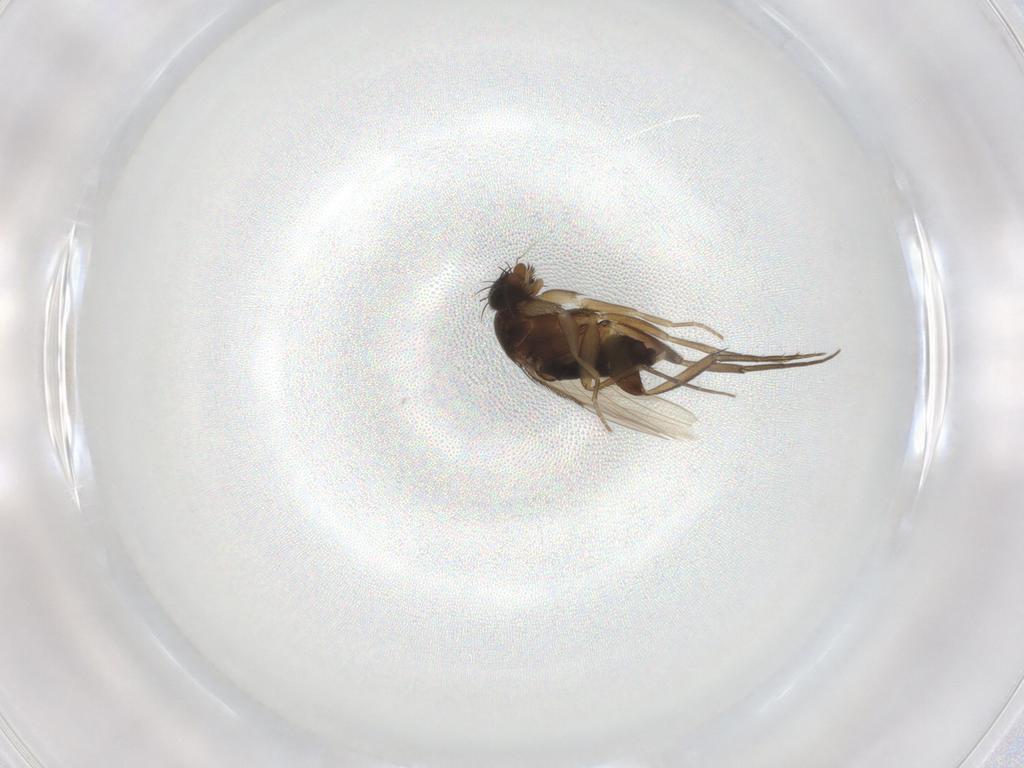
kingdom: Animalia
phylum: Arthropoda
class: Insecta
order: Diptera
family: Phoridae
